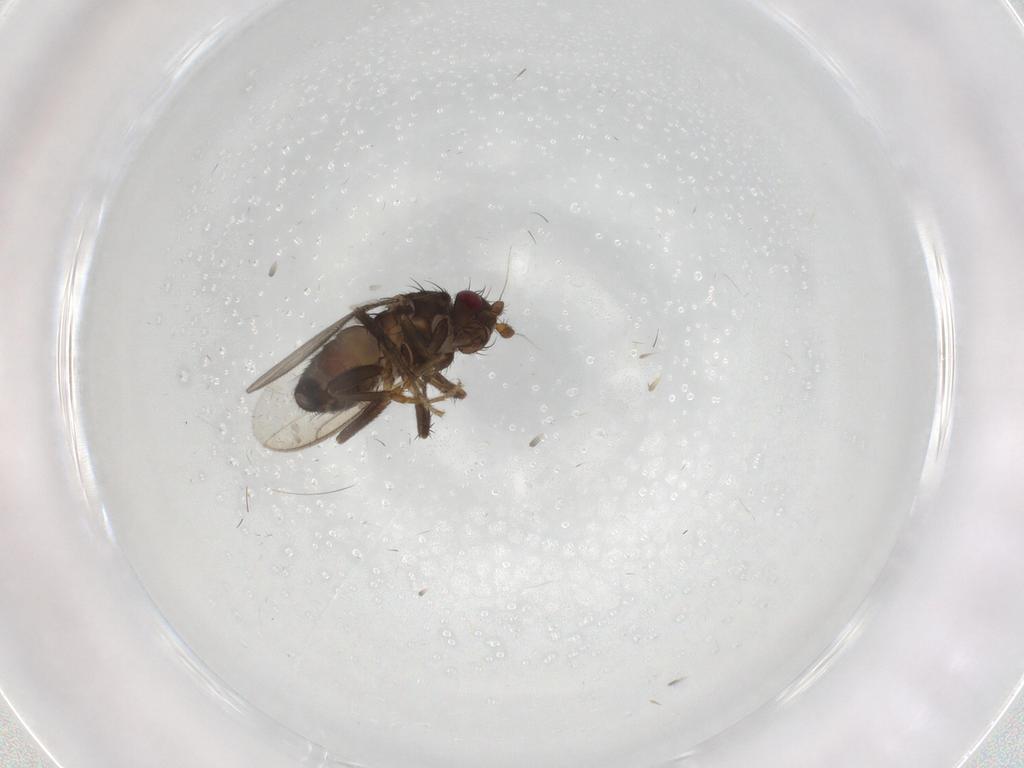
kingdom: Animalia
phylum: Arthropoda
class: Insecta
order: Diptera
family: Sphaeroceridae
